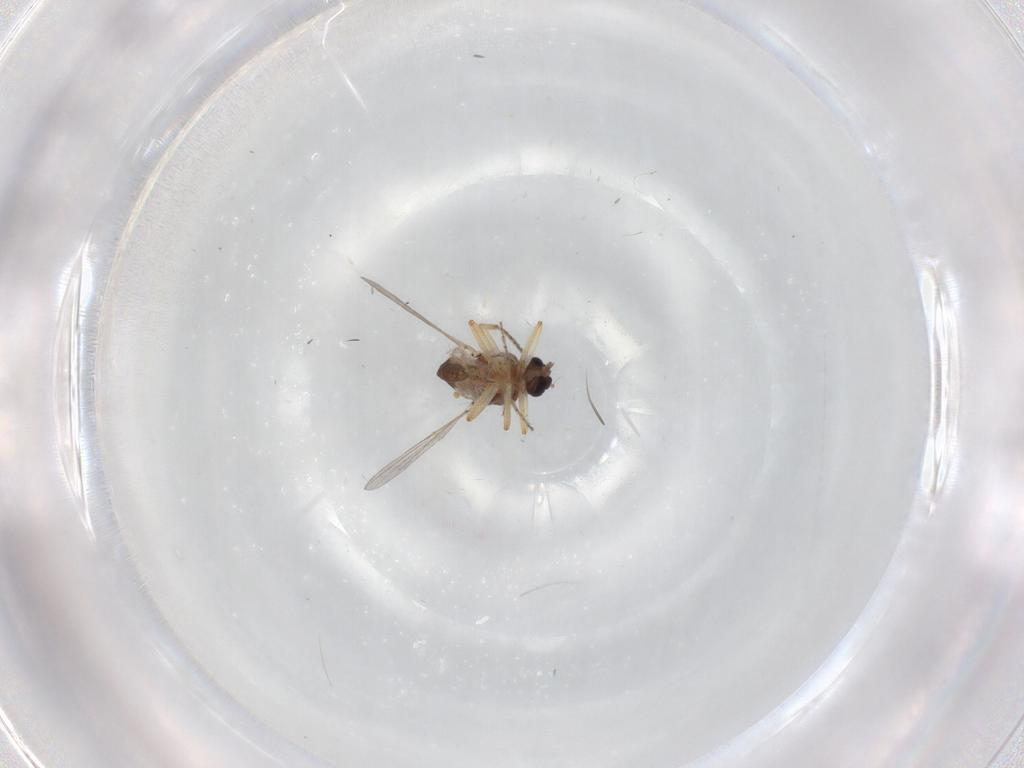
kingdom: Animalia
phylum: Arthropoda
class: Insecta
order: Diptera
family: Ceratopogonidae
